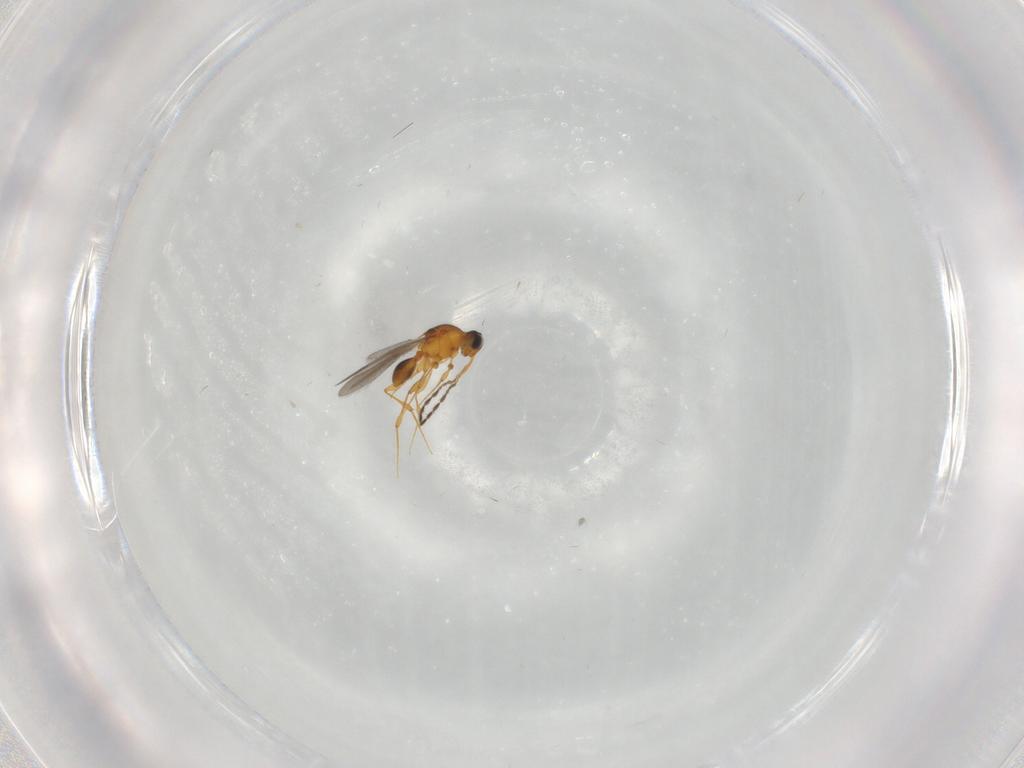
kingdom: Animalia
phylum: Arthropoda
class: Insecta
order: Hymenoptera
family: Platygastridae
